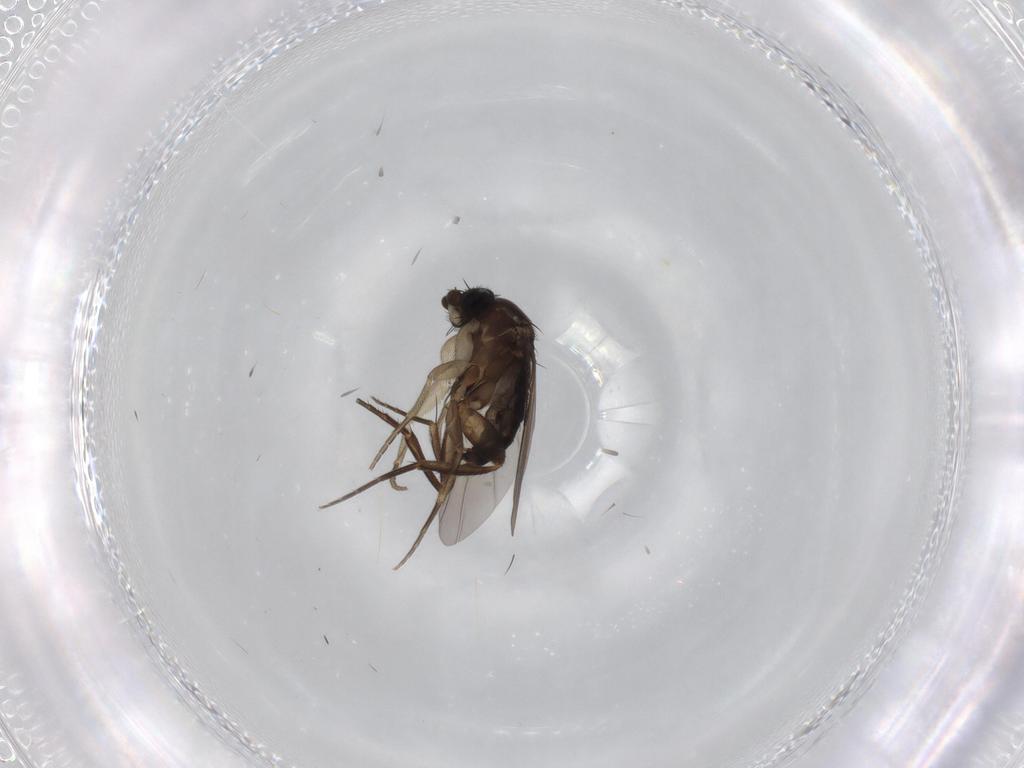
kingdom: Animalia
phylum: Arthropoda
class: Insecta
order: Diptera
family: Phoridae
